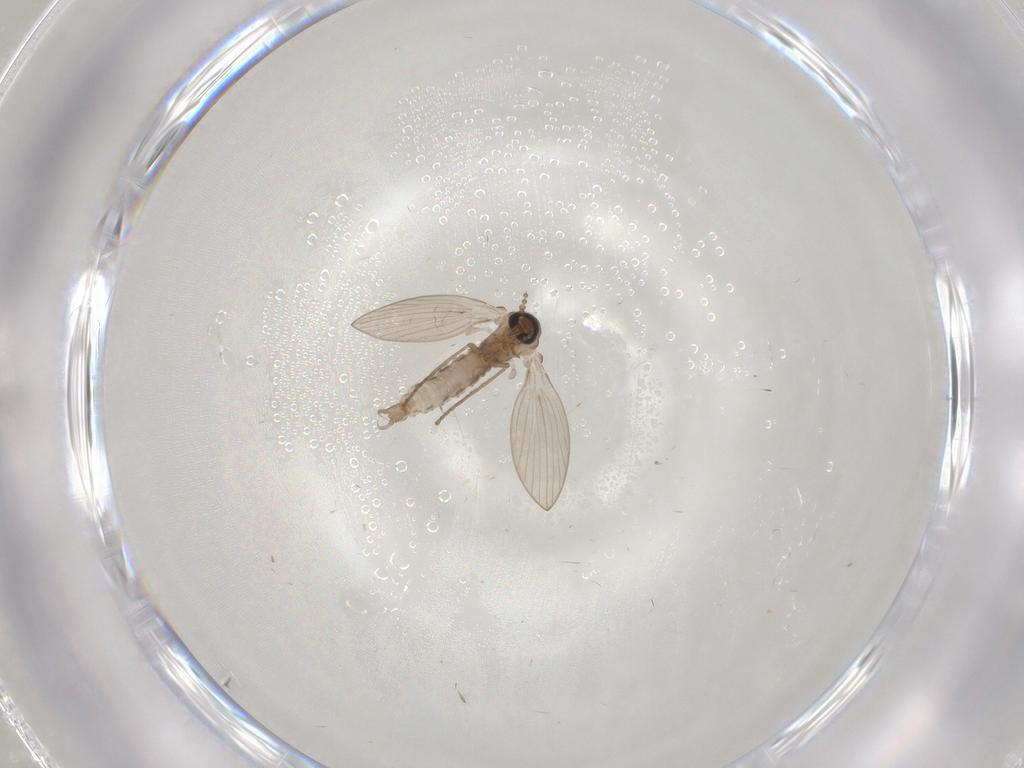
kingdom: Animalia
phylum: Arthropoda
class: Insecta
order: Diptera
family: Psychodidae
